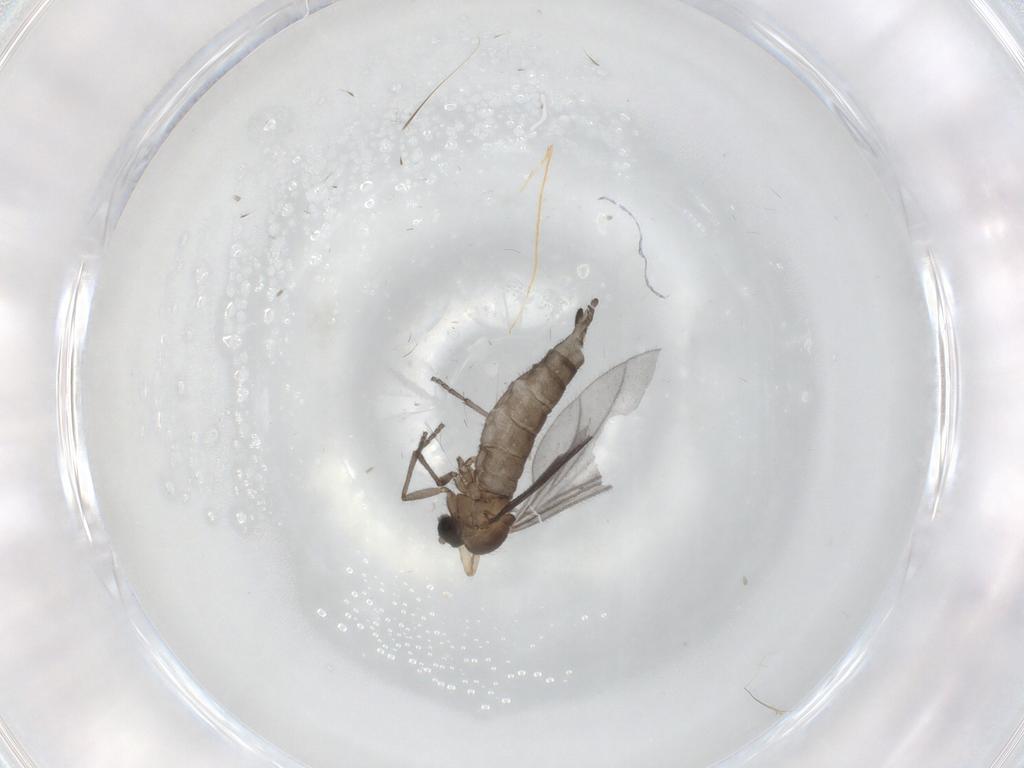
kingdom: Animalia
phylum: Arthropoda
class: Insecta
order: Diptera
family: Sciaridae
